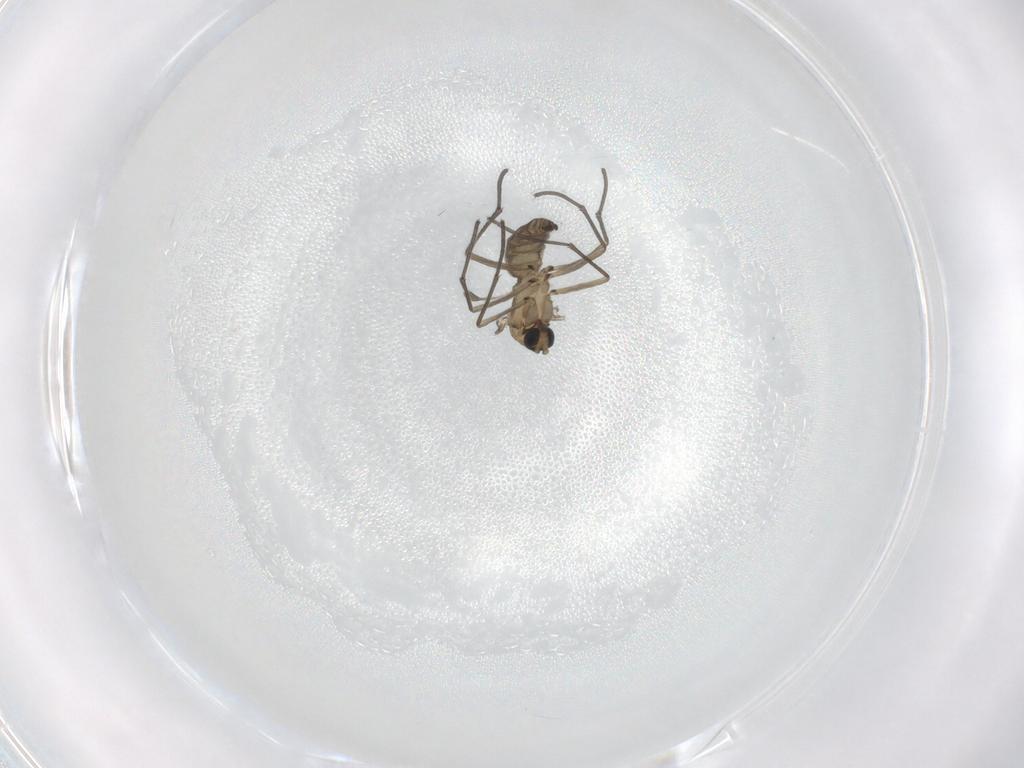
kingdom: Animalia
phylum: Arthropoda
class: Insecta
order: Diptera
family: Sciaridae
